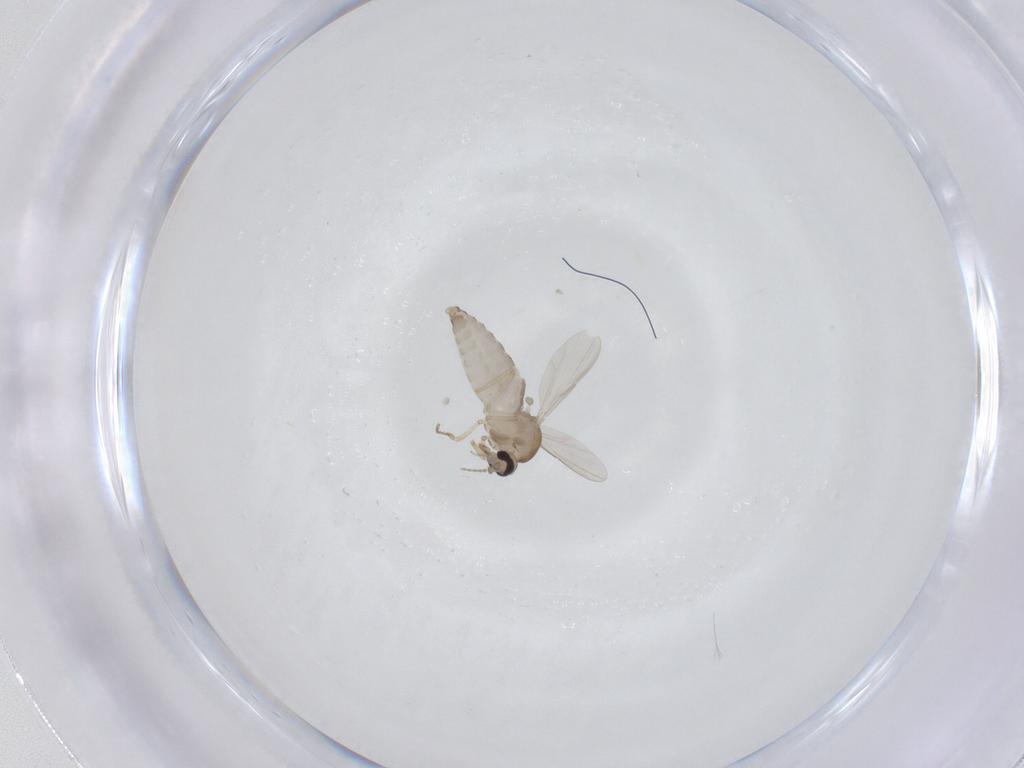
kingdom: Animalia
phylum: Arthropoda
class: Insecta
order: Diptera
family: Ceratopogonidae
